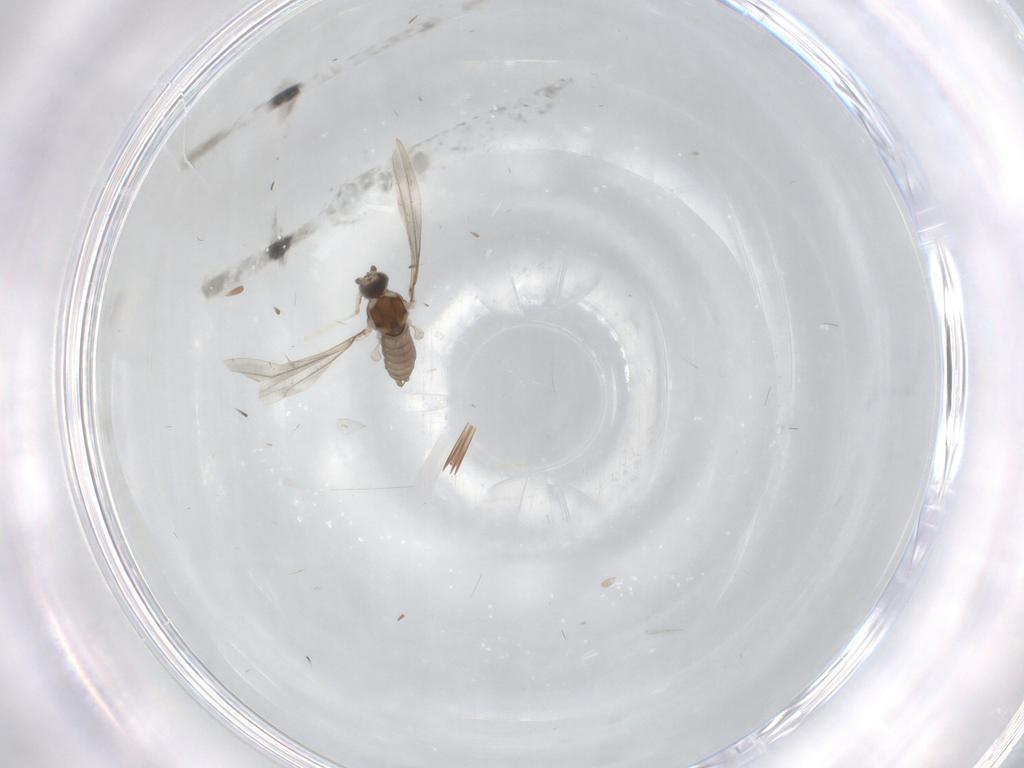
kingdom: Animalia
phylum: Arthropoda
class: Insecta
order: Diptera
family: Cecidomyiidae
